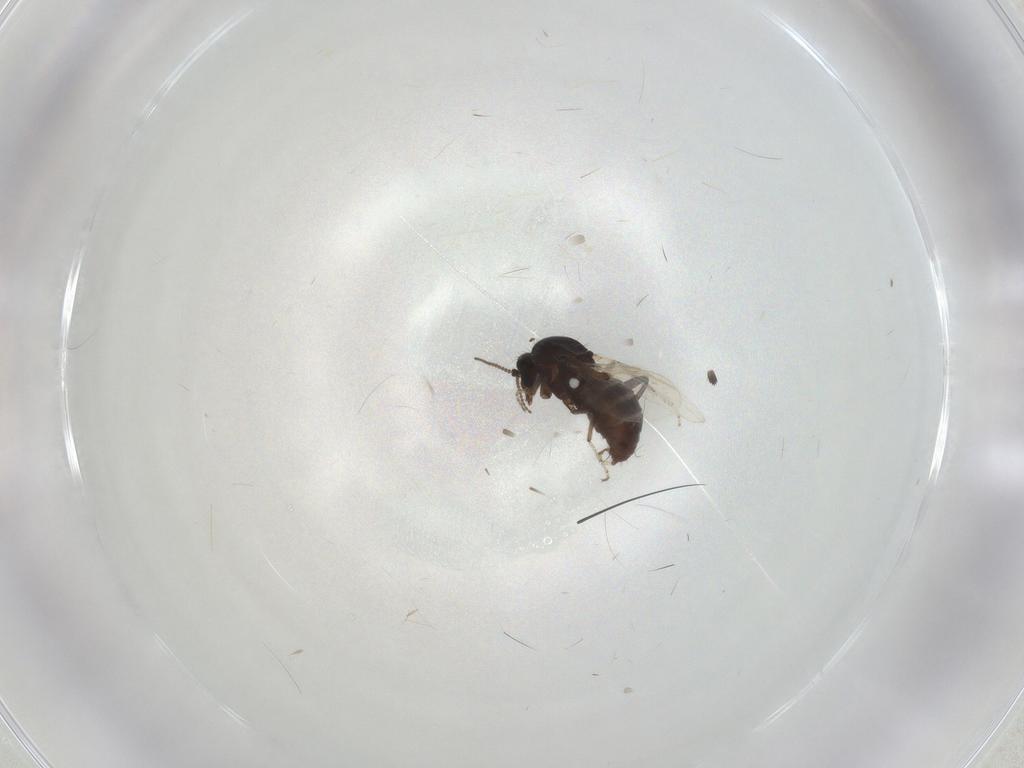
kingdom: Animalia
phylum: Arthropoda
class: Insecta
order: Diptera
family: Ceratopogonidae
